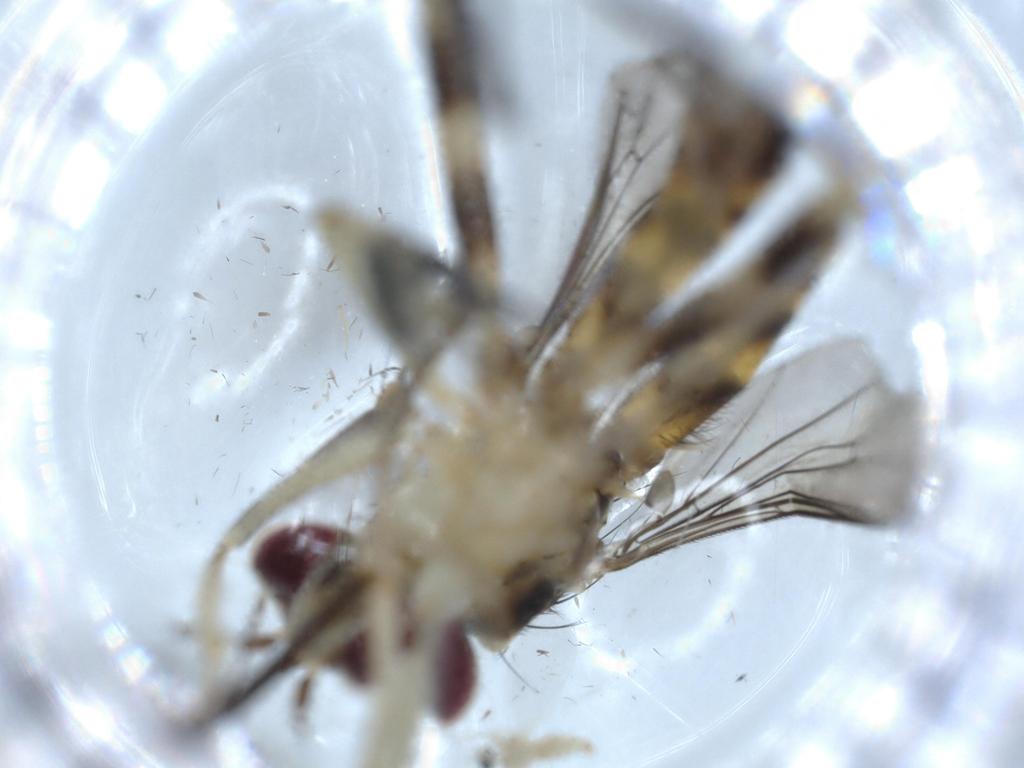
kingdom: Animalia
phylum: Arthropoda
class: Insecta
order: Diptera
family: Conopidae
